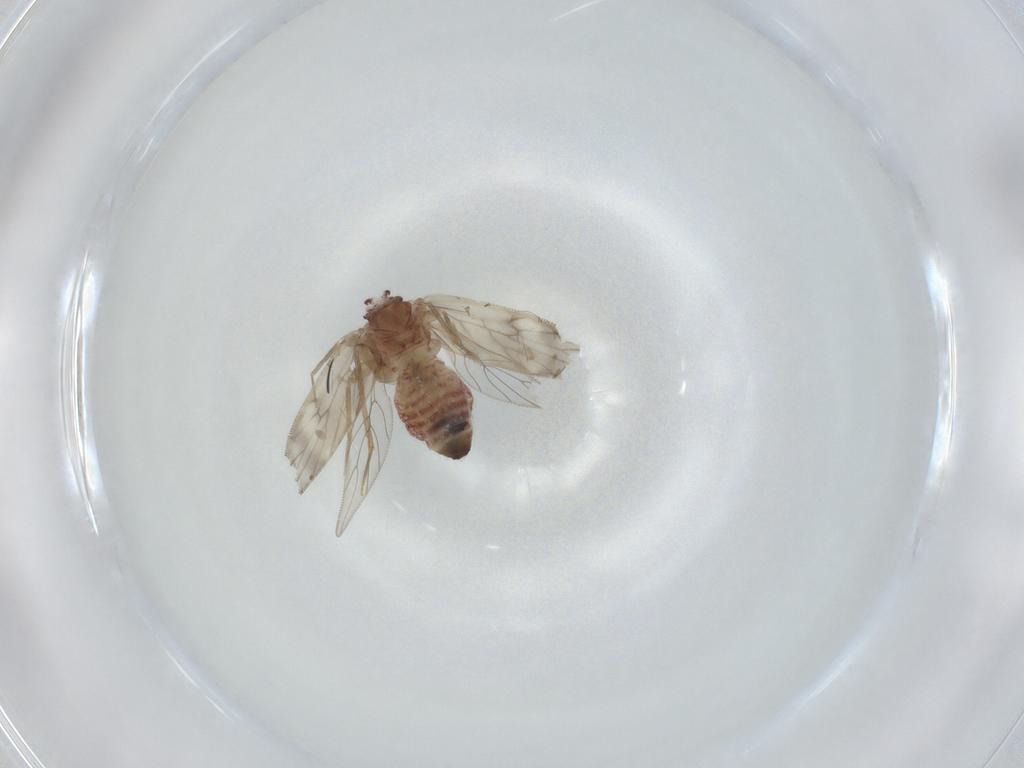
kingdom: Animalia
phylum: Arthropoda
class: Insecta
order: Psocodea
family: Lepidopsocidae
